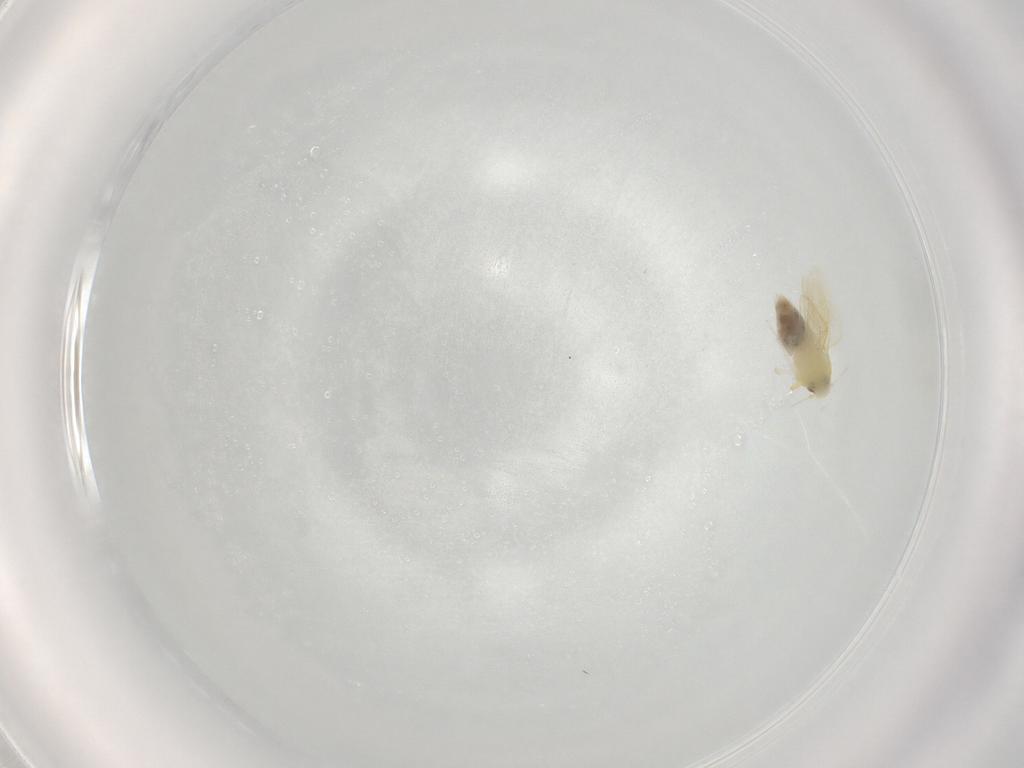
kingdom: Animalia
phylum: Arthropoda
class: Insecta
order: Hemiptera
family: Aleyrodidae
